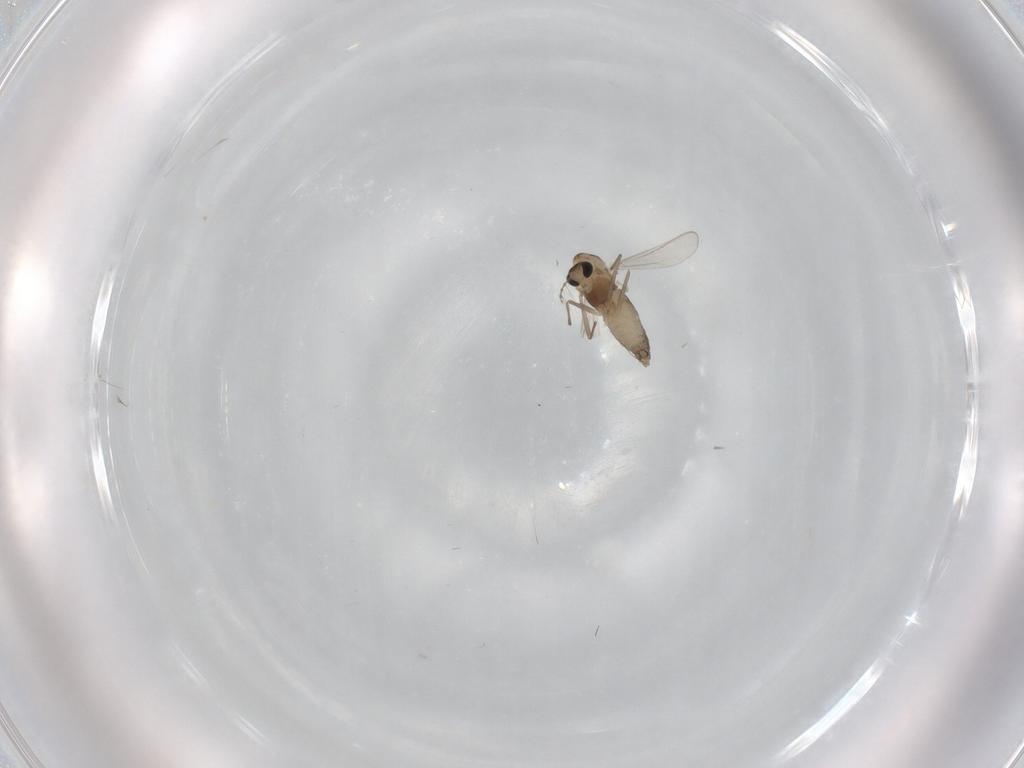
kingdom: Animalia
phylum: Arthropoda
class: Insecta
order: Diptera
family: Chironomidae
